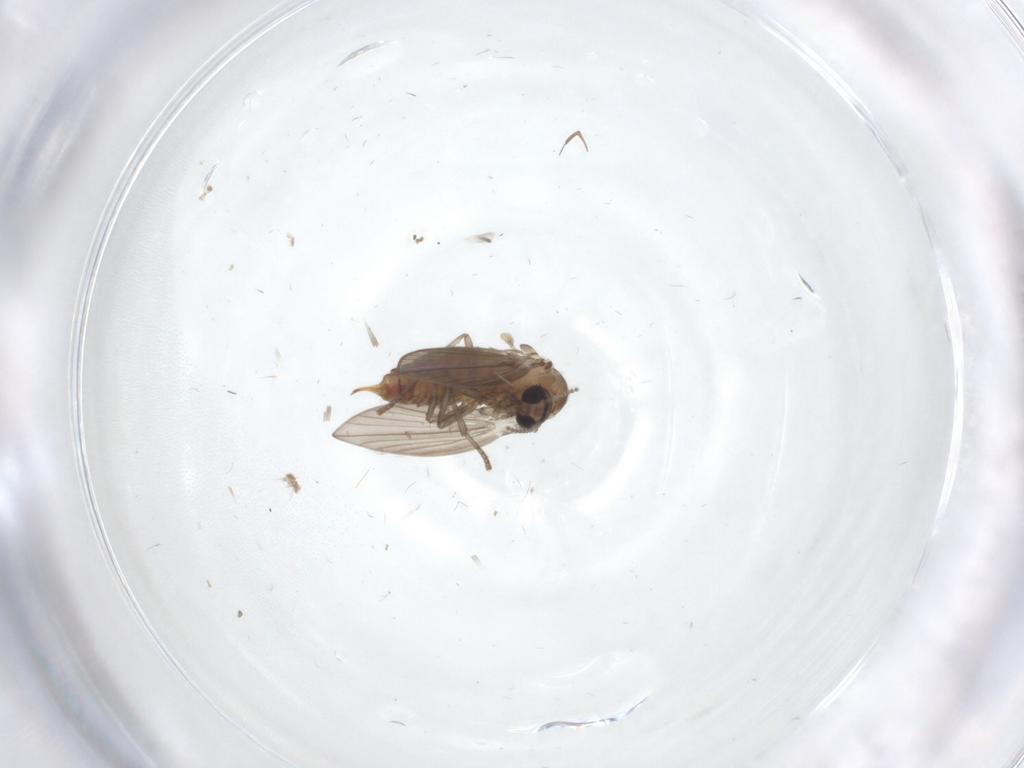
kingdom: Animalia
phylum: Arthropoda
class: Insecta
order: Diptera
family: Psychodidae
